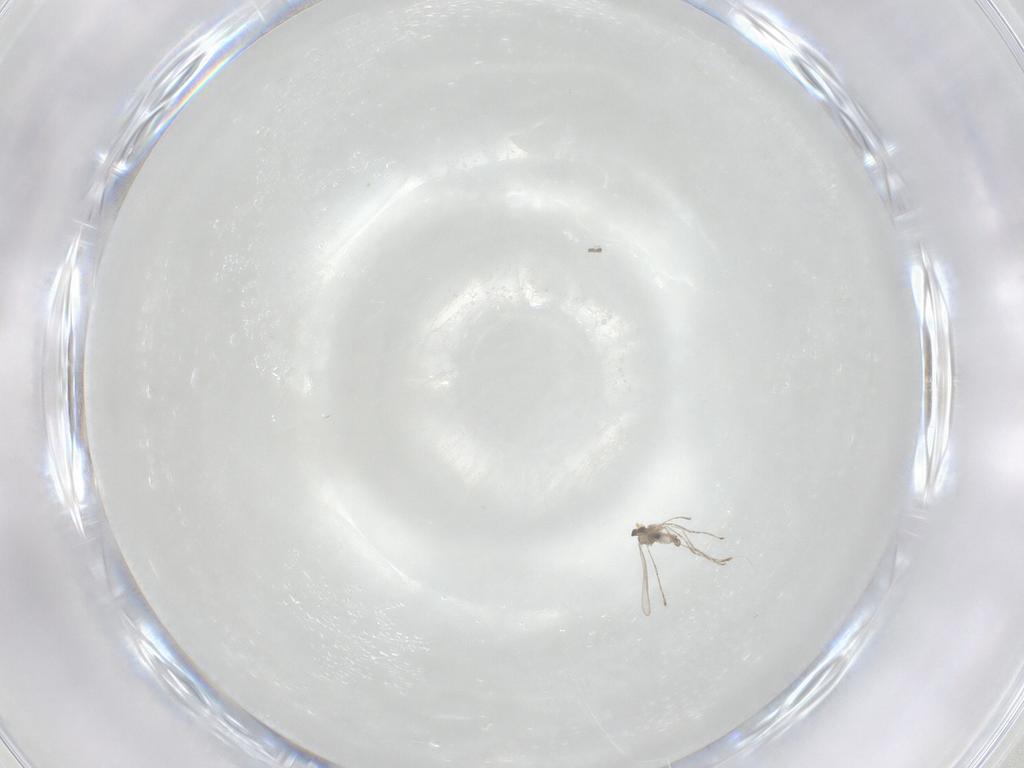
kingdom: Animalia
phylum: Arthropoda
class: Insecta
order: Diptera
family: Cecidomyiidae
